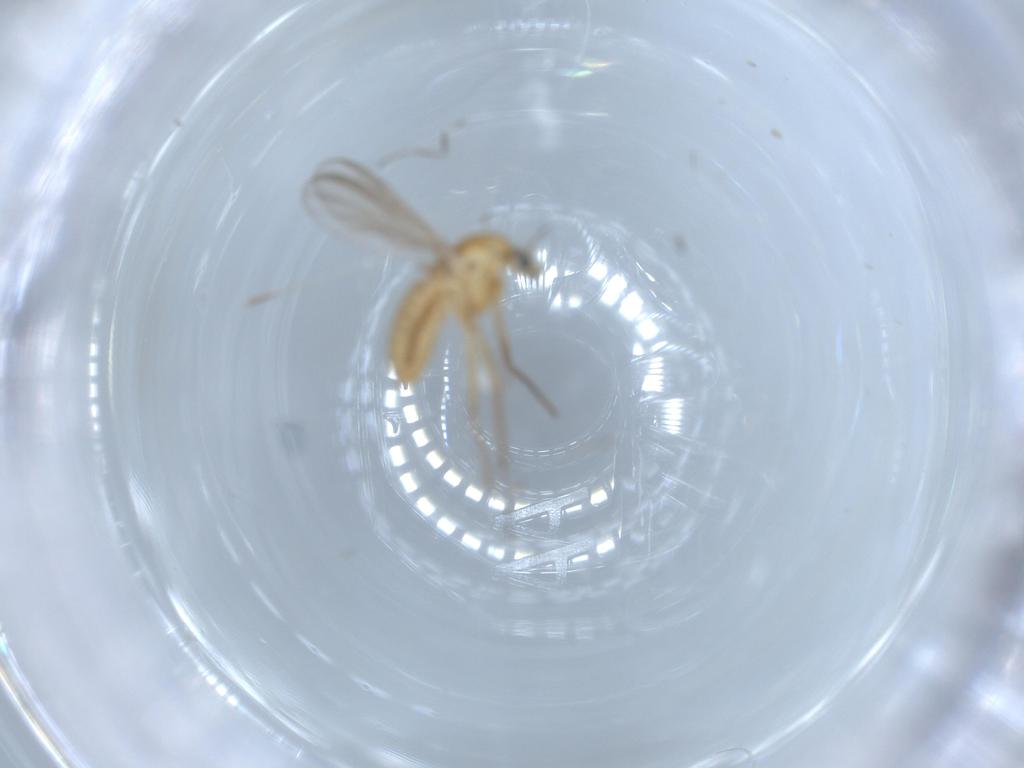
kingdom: Animalia
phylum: Arthropoda
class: Insecta
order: Diptera
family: Chironomidae
